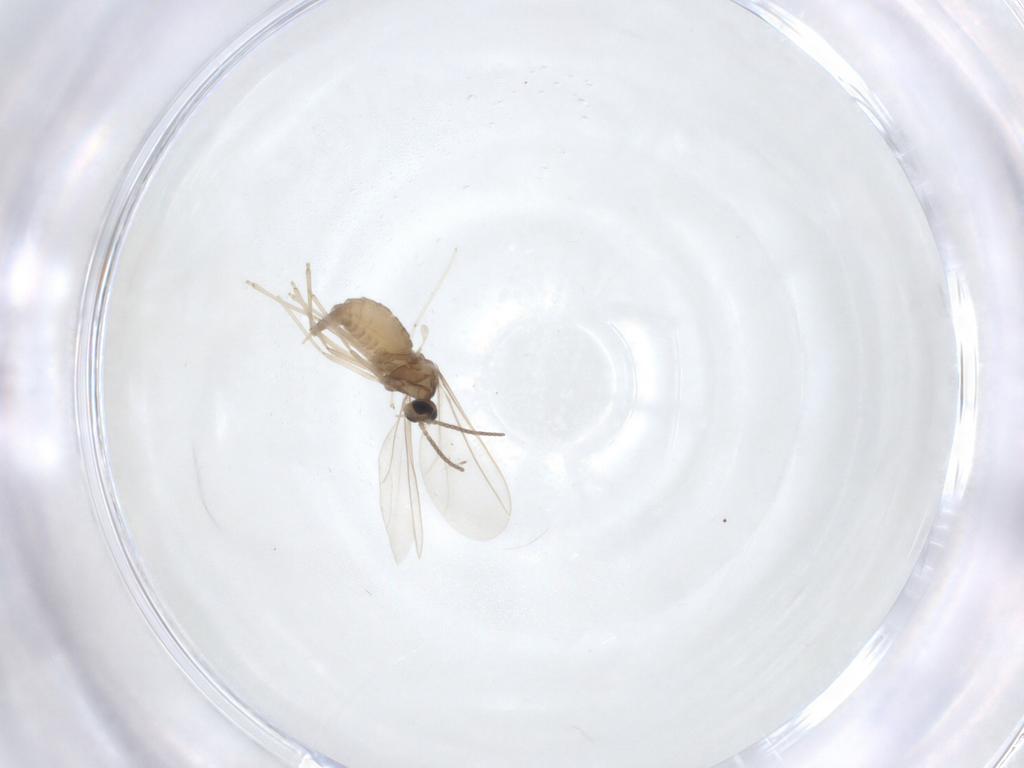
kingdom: Animalia
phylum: Arthropoda
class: Insecta
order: Diptera
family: Cecidomyiidae
